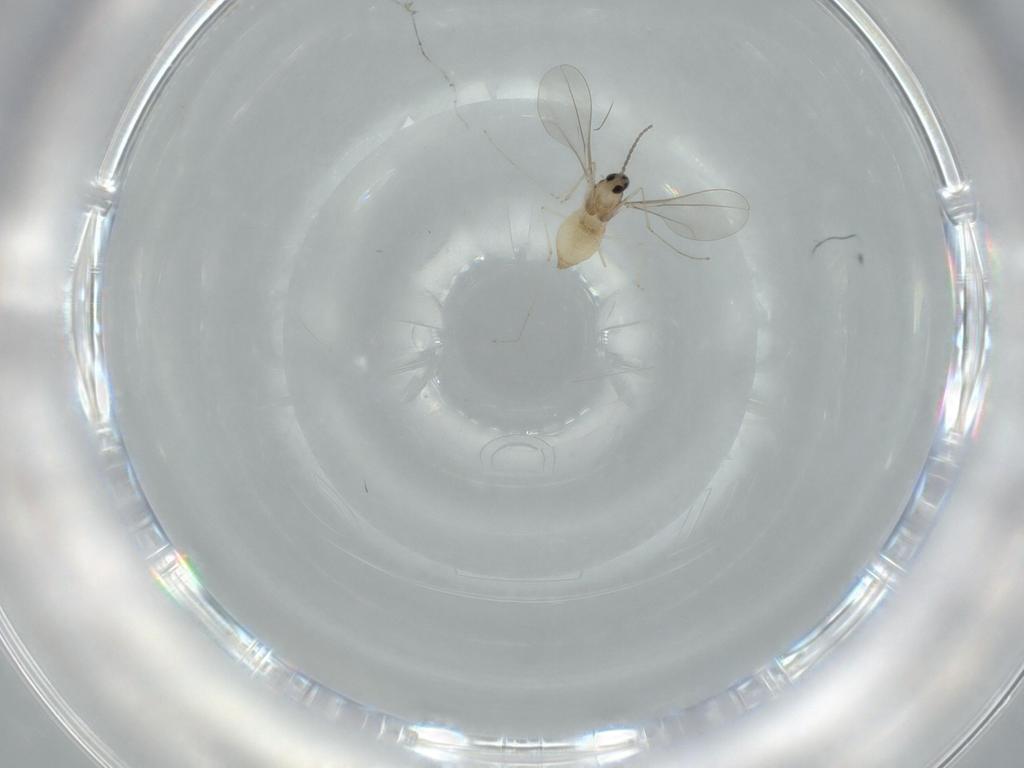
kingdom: Animalia
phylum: Arthropoda
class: Insecta
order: Diptera
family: Cecidomyiidae
